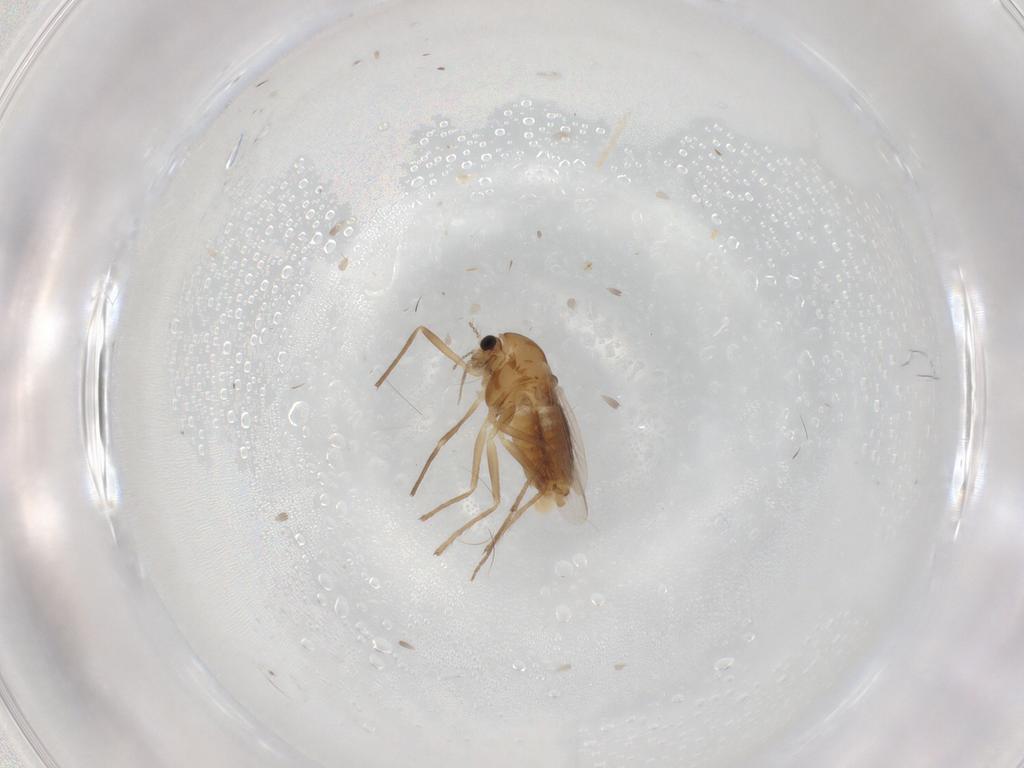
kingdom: Animalia
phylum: Arthropoda
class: Insecta
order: Diptera
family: Chironomidae
